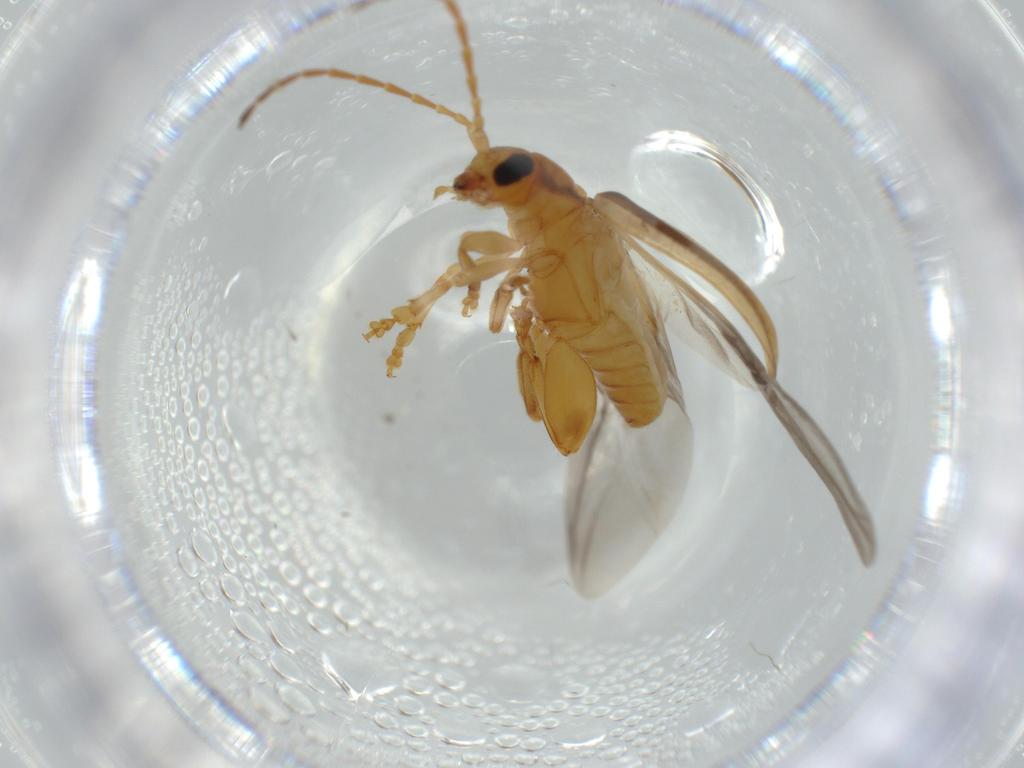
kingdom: Animalia
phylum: Arthropoda
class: Insecta
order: Coleoptera
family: Chrysomelidae
